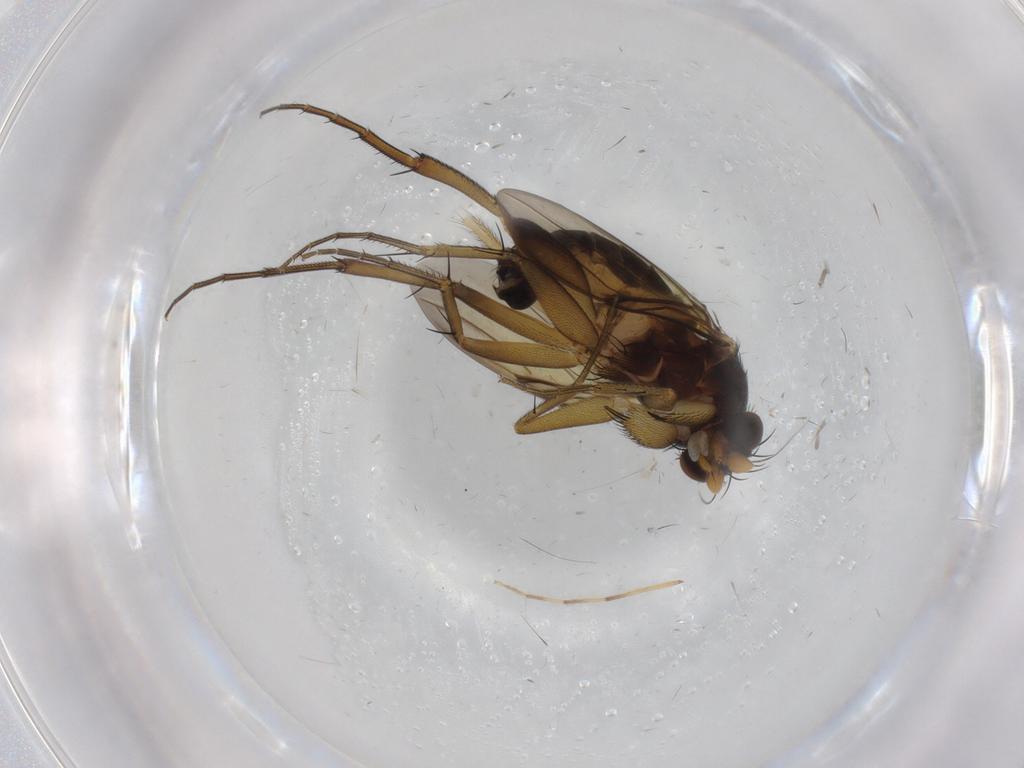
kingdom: Animalia
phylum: Arthropoda
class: Insecta
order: Diptera
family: Phoridae
